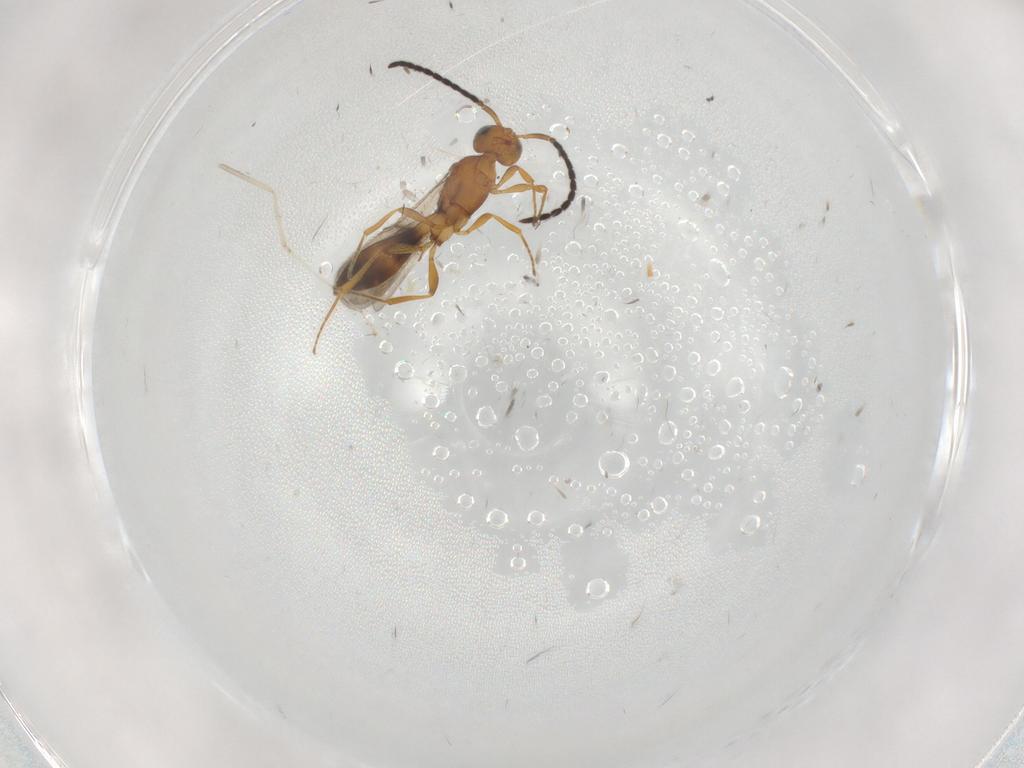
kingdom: Animalia
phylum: Arthropoda
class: Insecta
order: Hymenoptera
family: Scelionidae
